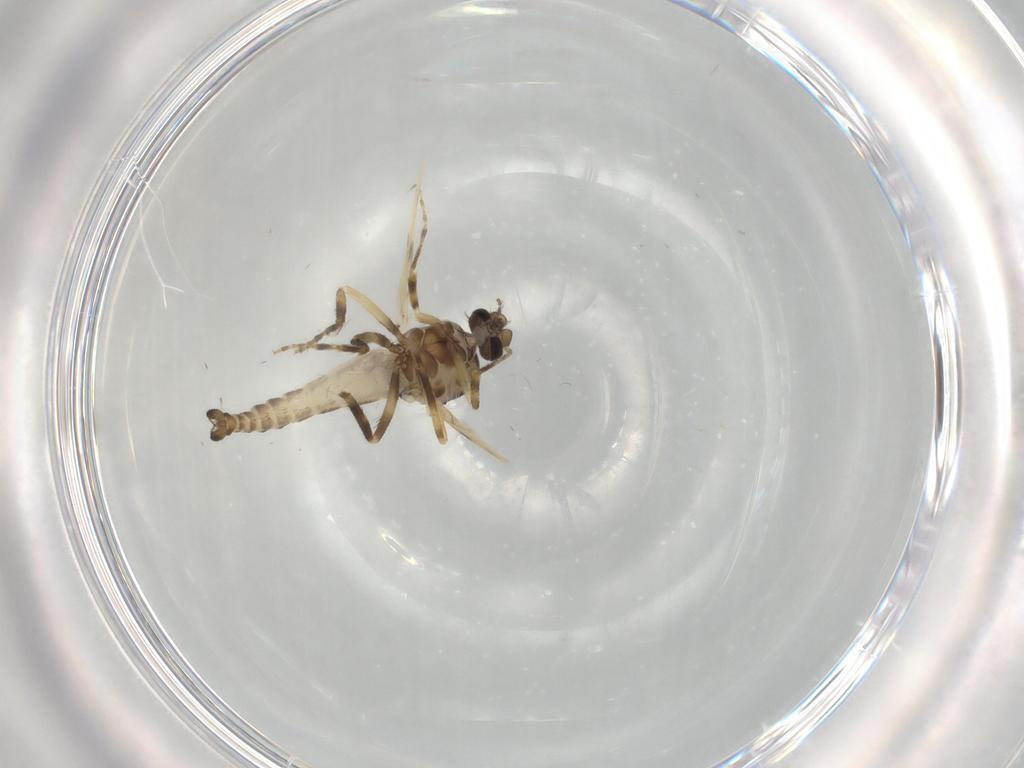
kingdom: Animalia
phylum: Arthropoda
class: Insecta
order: Diptera
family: Ceratopogonidae
